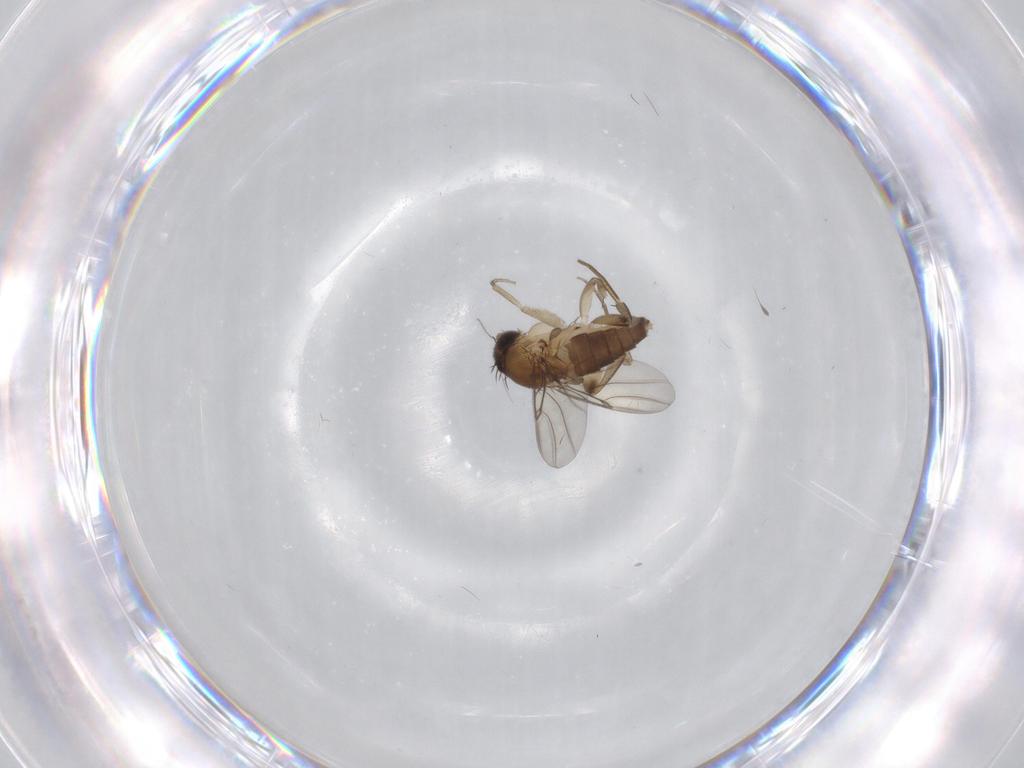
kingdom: Animalia
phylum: Arthropoda
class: Insecta
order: Diptera
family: Phoridae
